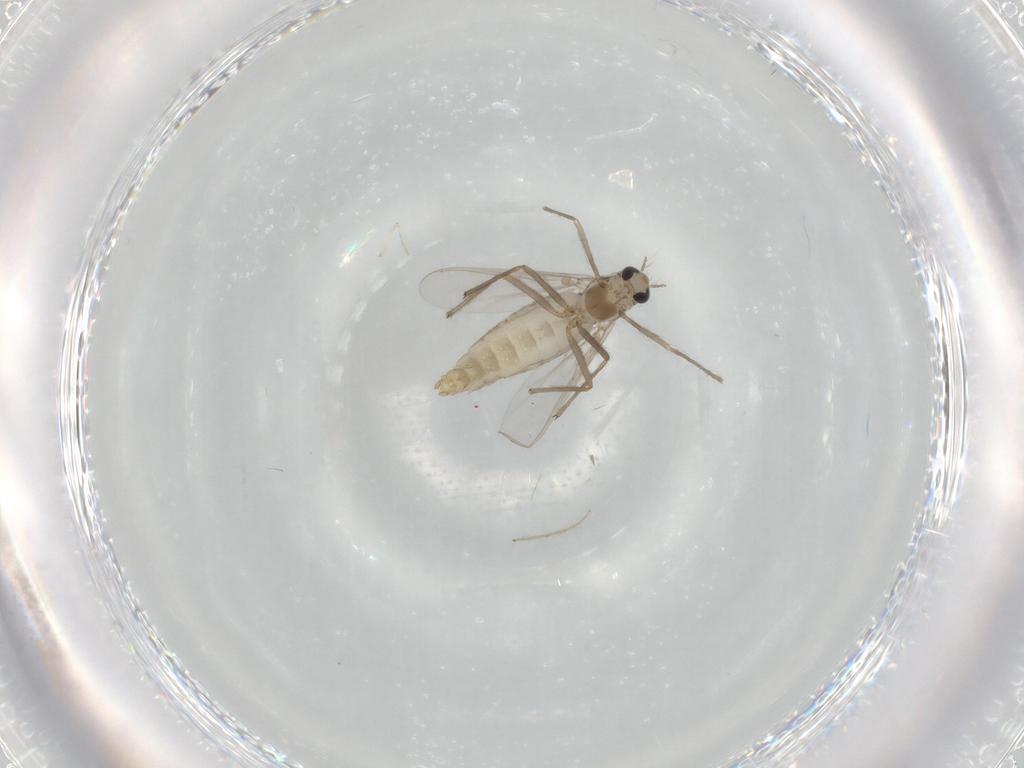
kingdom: Animalia
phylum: Arthropoda
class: Insecta
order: Diptera
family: Chironomidae
